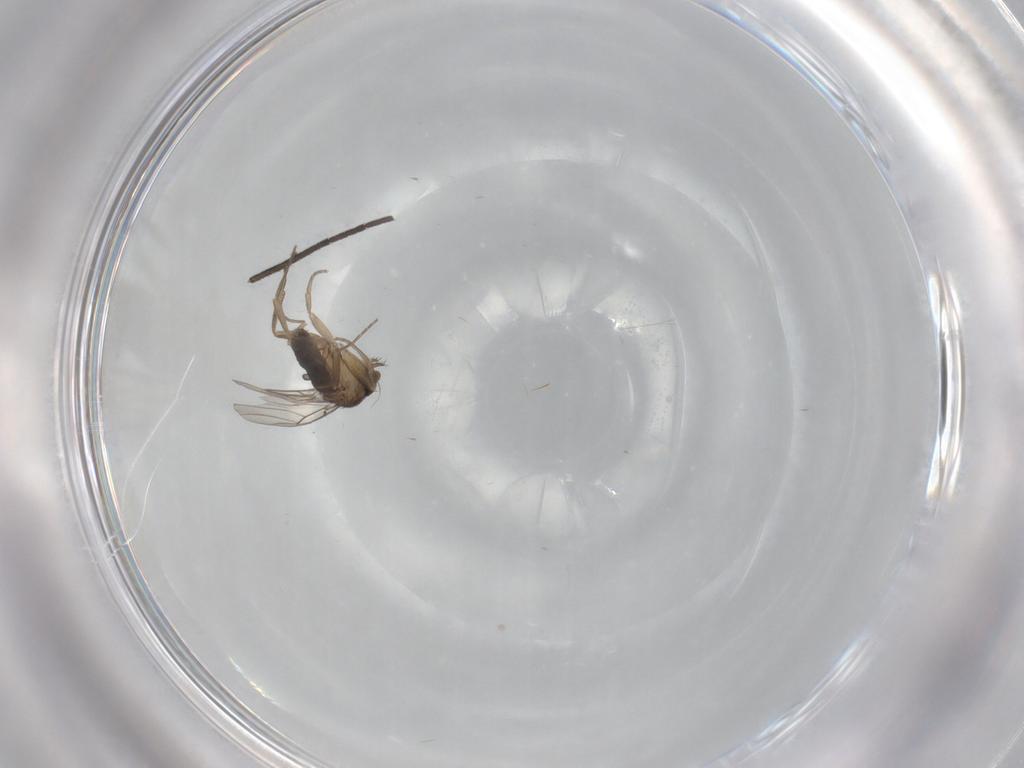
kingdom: Animalia
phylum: Arthropoda
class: Insecta
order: Diptera
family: Phoridae
